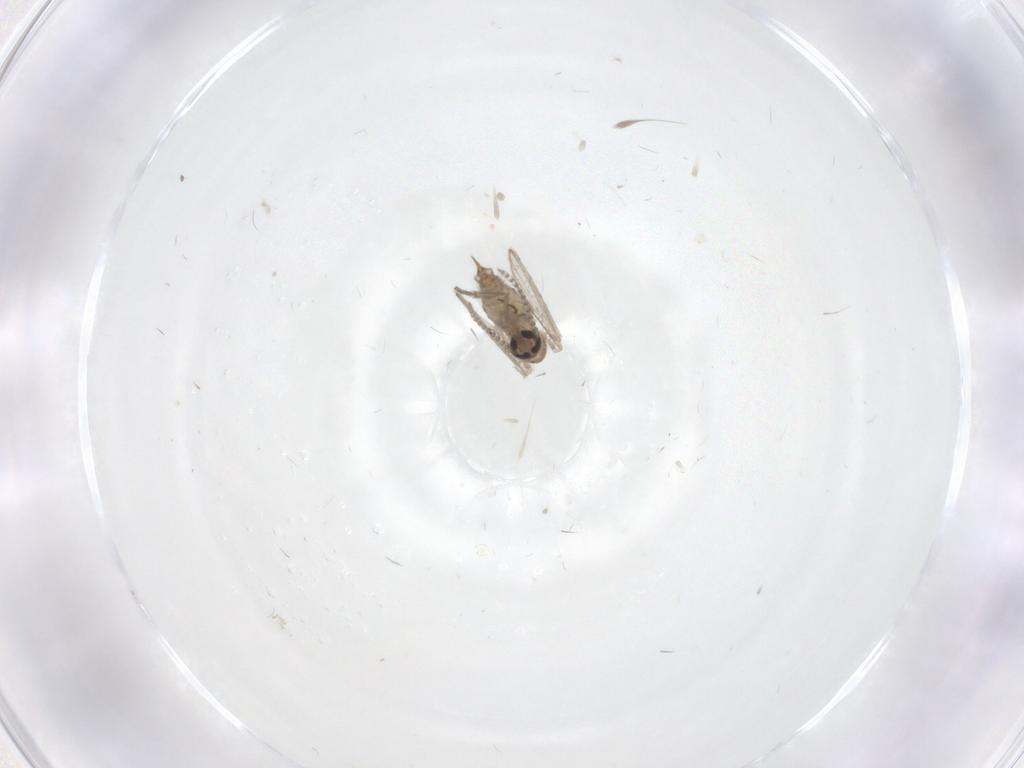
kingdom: Animalia
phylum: Arthropoda
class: Insecta
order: Diptera
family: Psychodidae
